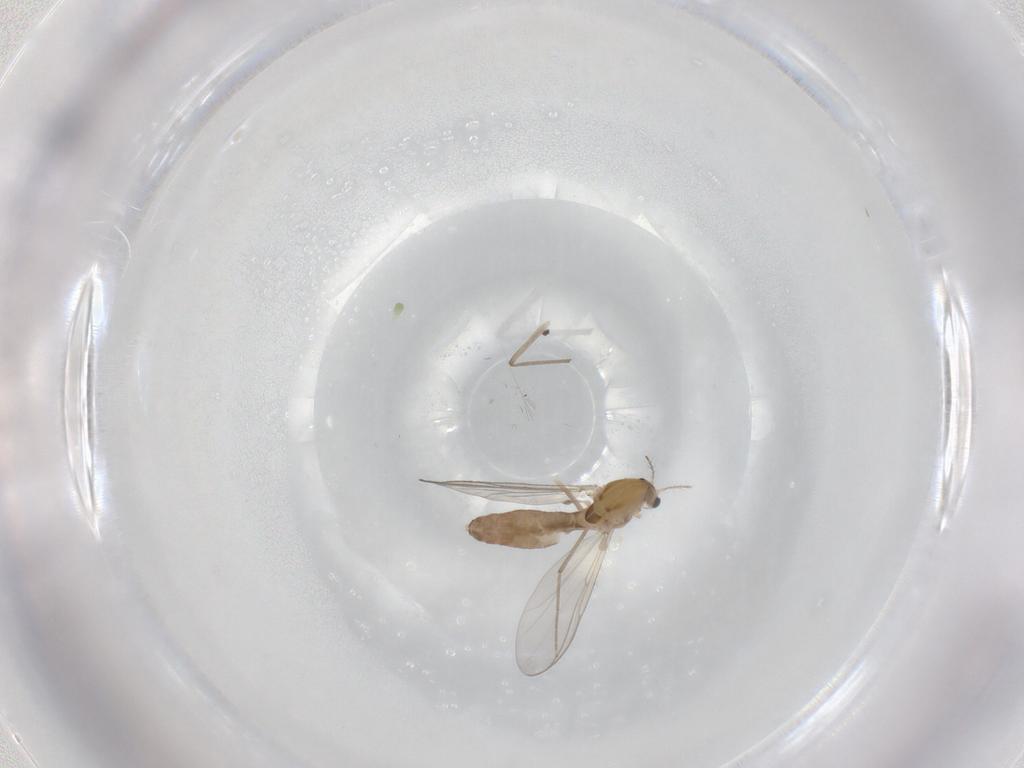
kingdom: Animalia
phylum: Arthropoda
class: Insecta
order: Diptera
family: Chironomidae
